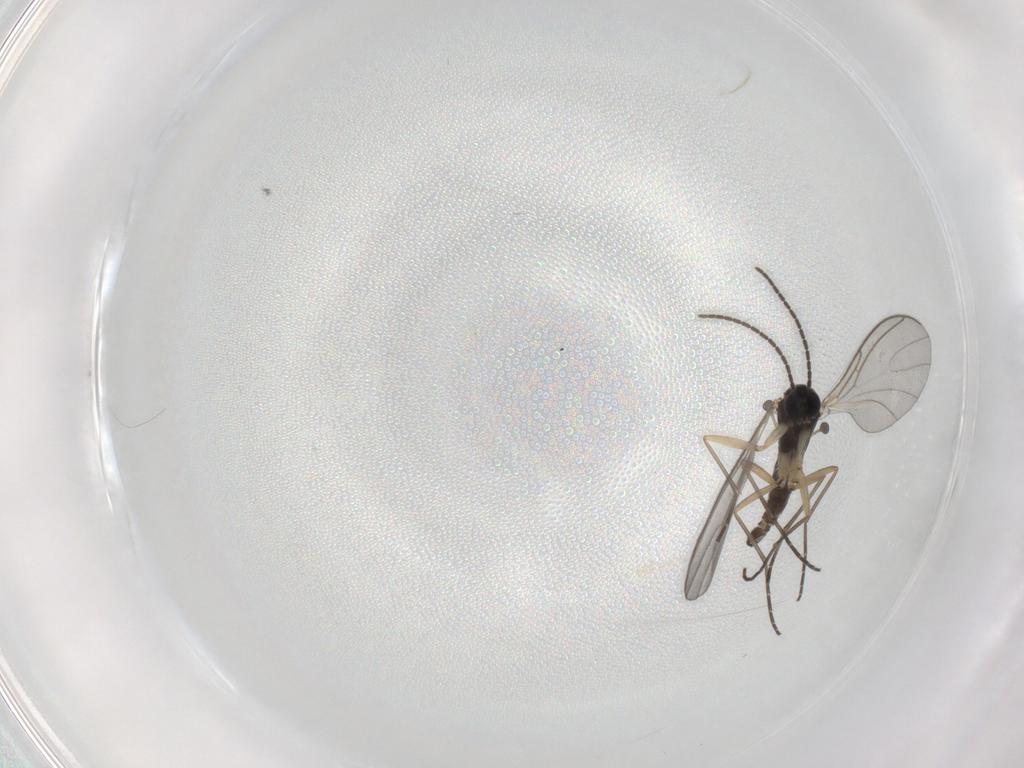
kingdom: Animalia
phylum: Arthropoda
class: Insecta
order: Diptera
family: Sciaridae
